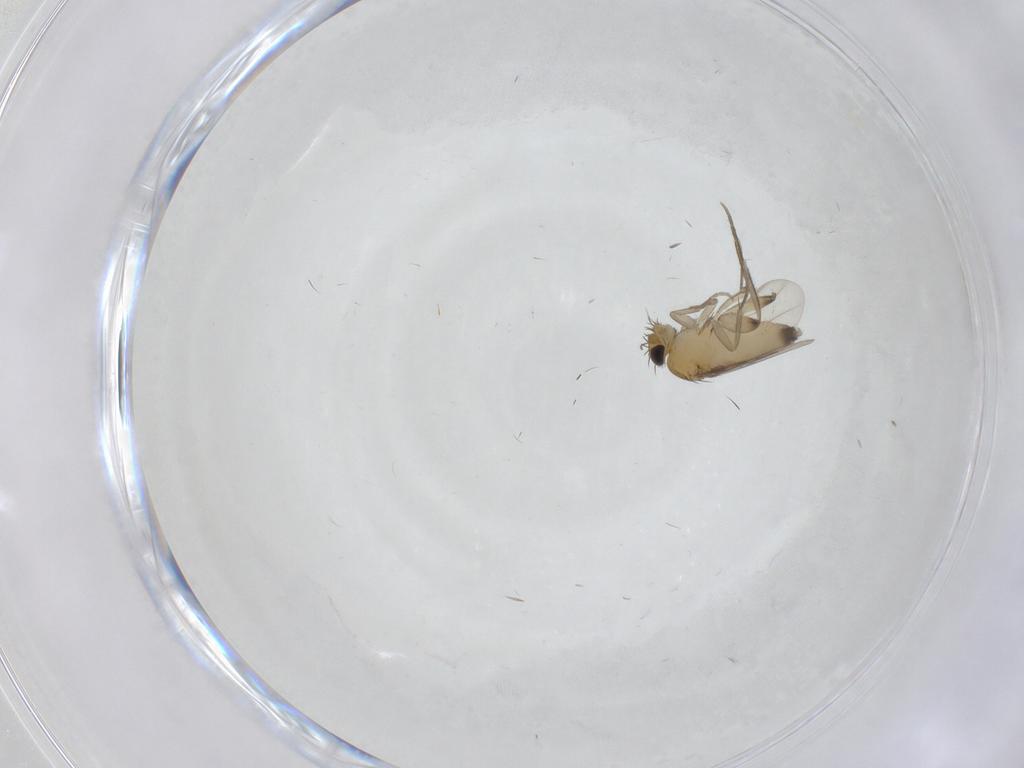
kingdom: Animalia
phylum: Arthropoda
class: Insecta
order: Diptera
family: Phoridae
